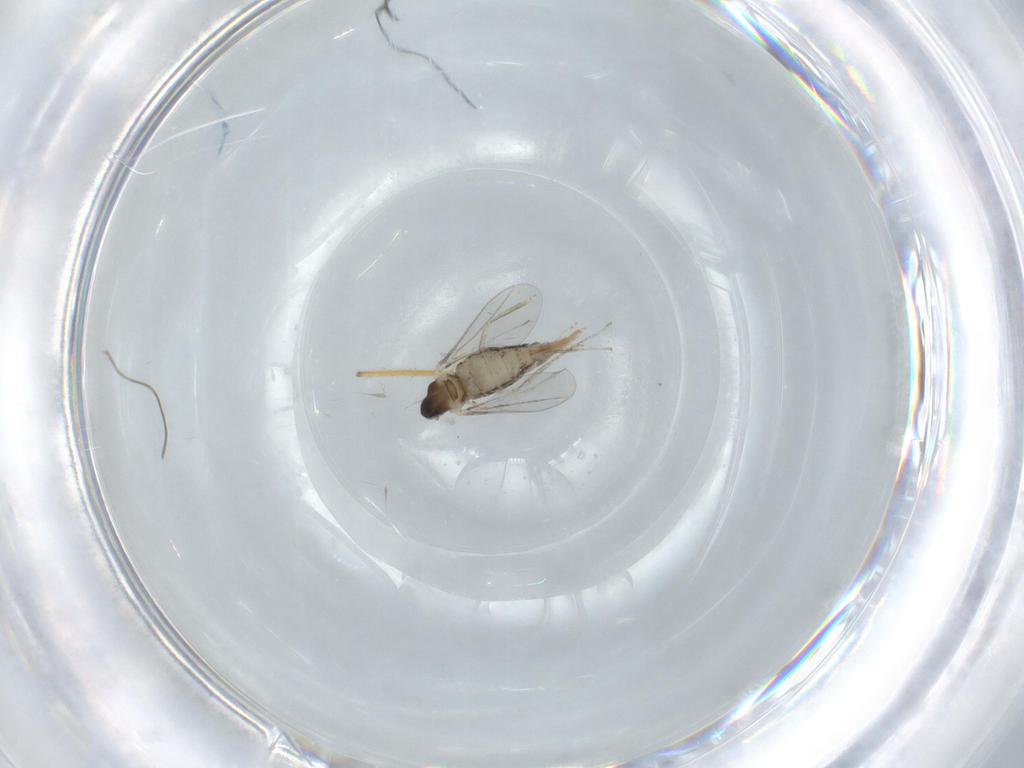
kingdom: Animalia
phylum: Arthropoda
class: Insecta
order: Diptera
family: Cecidomyiidae
